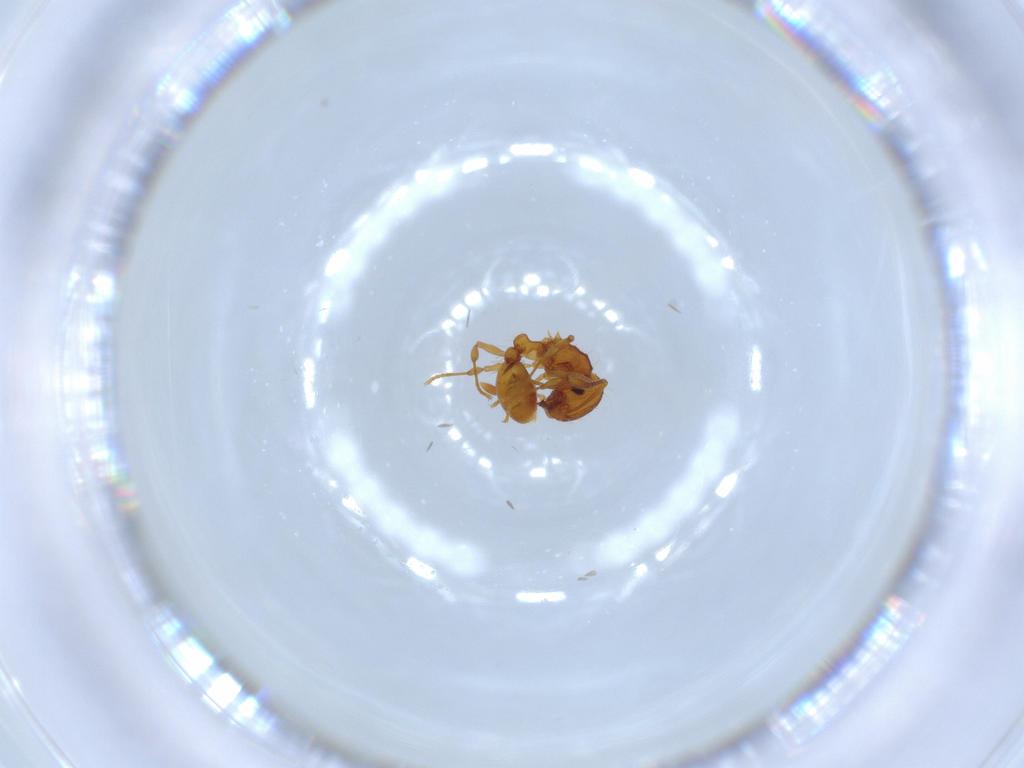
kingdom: Animalia
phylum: Arthropoda
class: Insecta
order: Hymenoptera
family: Formicidae
